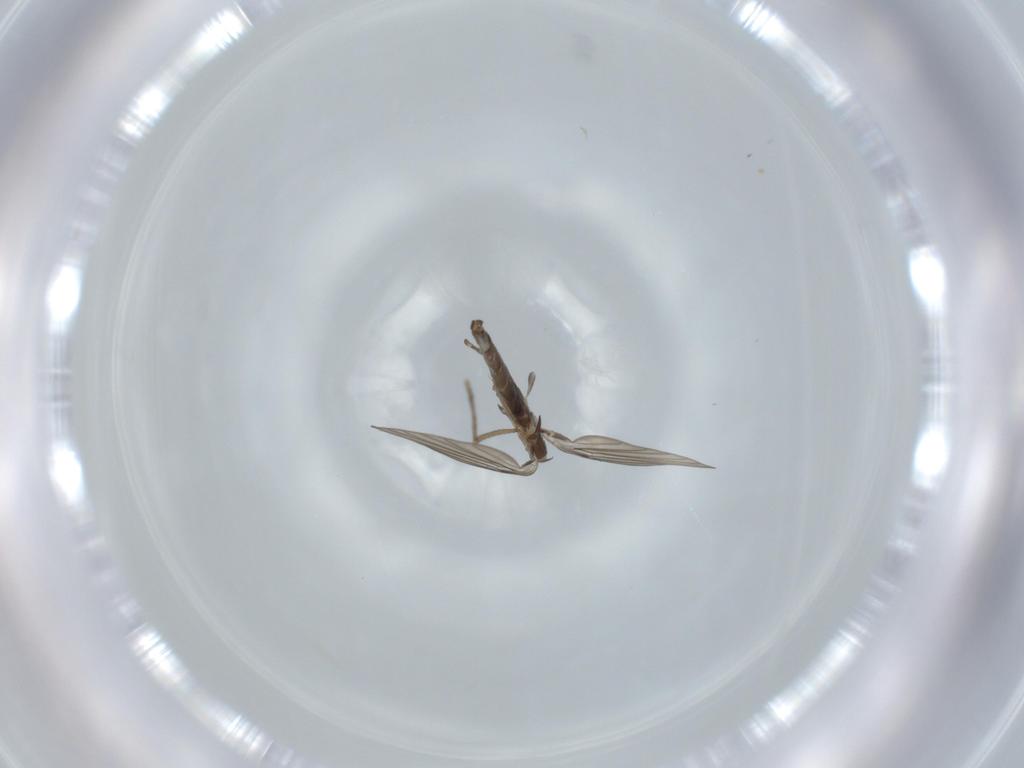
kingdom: Animalia
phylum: Arthropoda
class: Insecta
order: Diptera
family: Psychodidae
